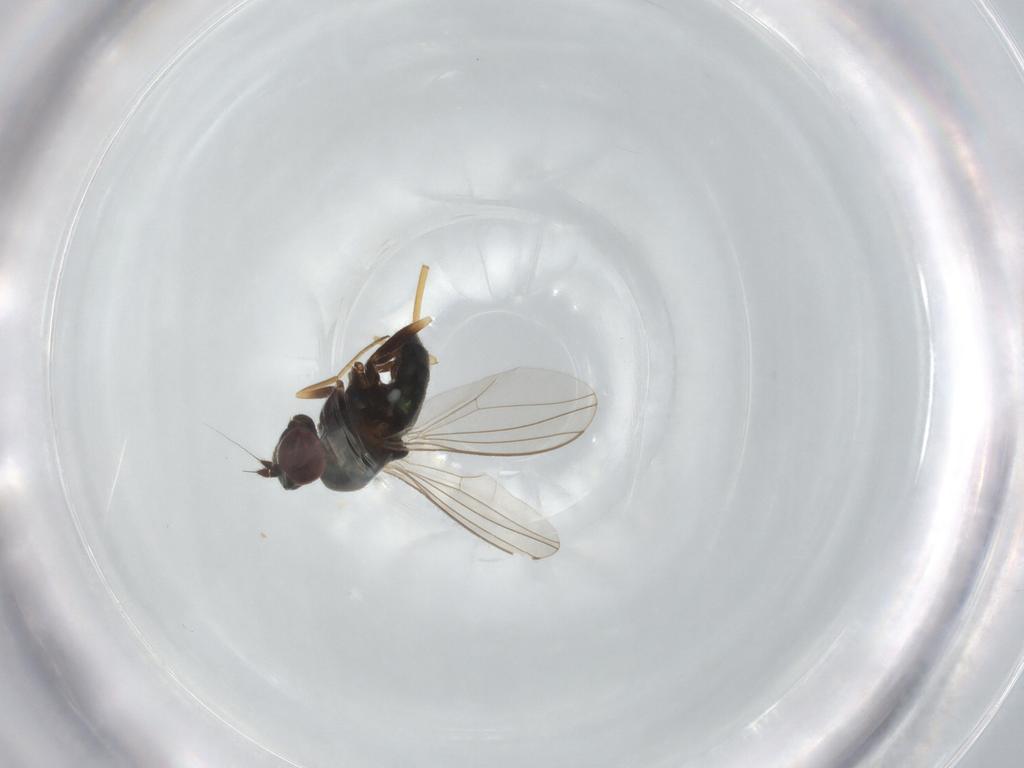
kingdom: Animalia
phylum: Arthropoda
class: Insecta
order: Diptera
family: Dolichopodidae
